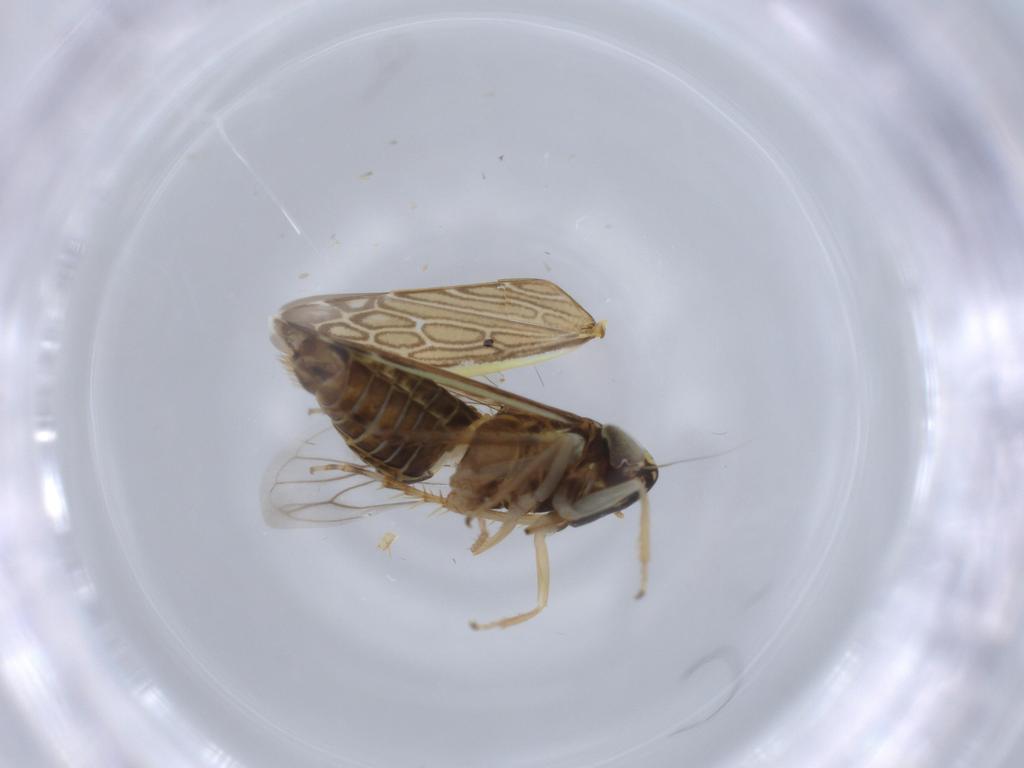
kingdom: Animalia
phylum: Arthropoda
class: Insecta
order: Hemiptera
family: Cicadellidae
